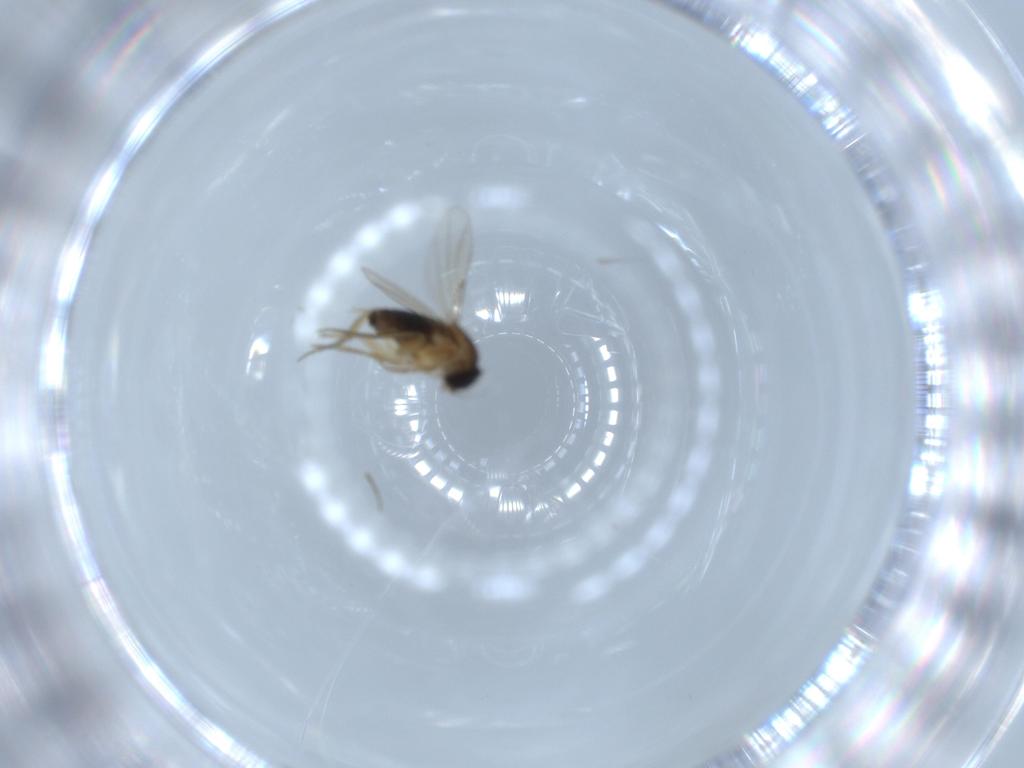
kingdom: Animalia
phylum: Arthropoda
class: Insecta
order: Diptera
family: Phoridae
